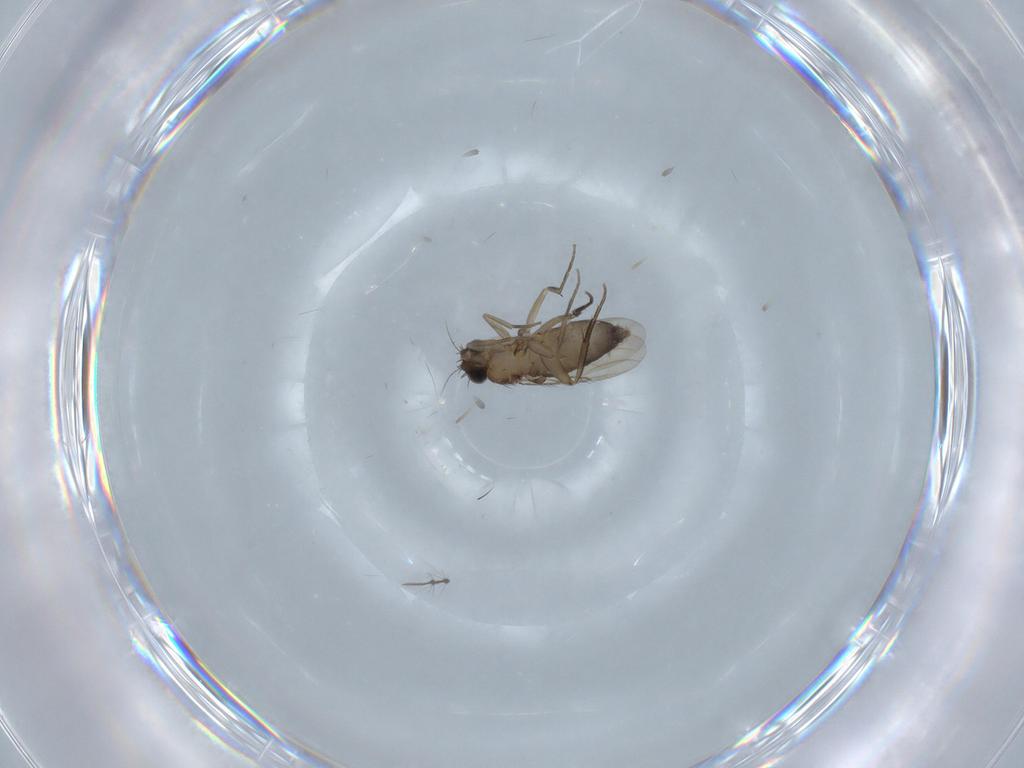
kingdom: Animalia
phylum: Arthropoda
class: Insecta
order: Diptera
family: Phoridae
